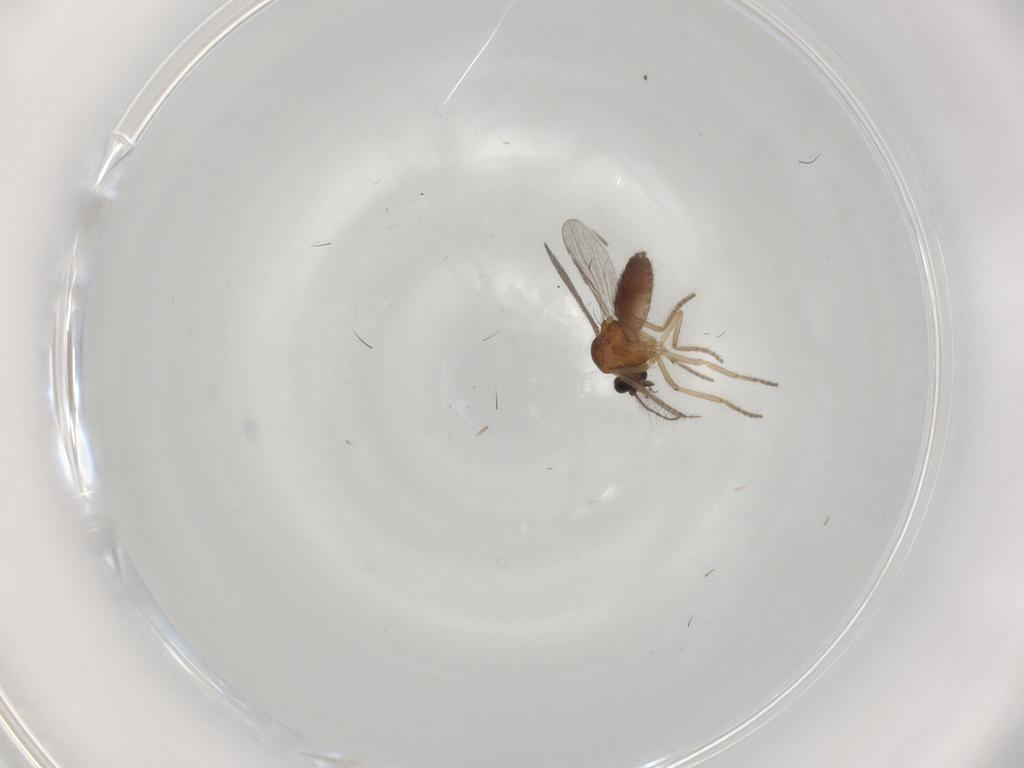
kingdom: Animalia
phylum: Arthropoda
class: Insecta
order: Diptera
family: Ceratopogonidae
